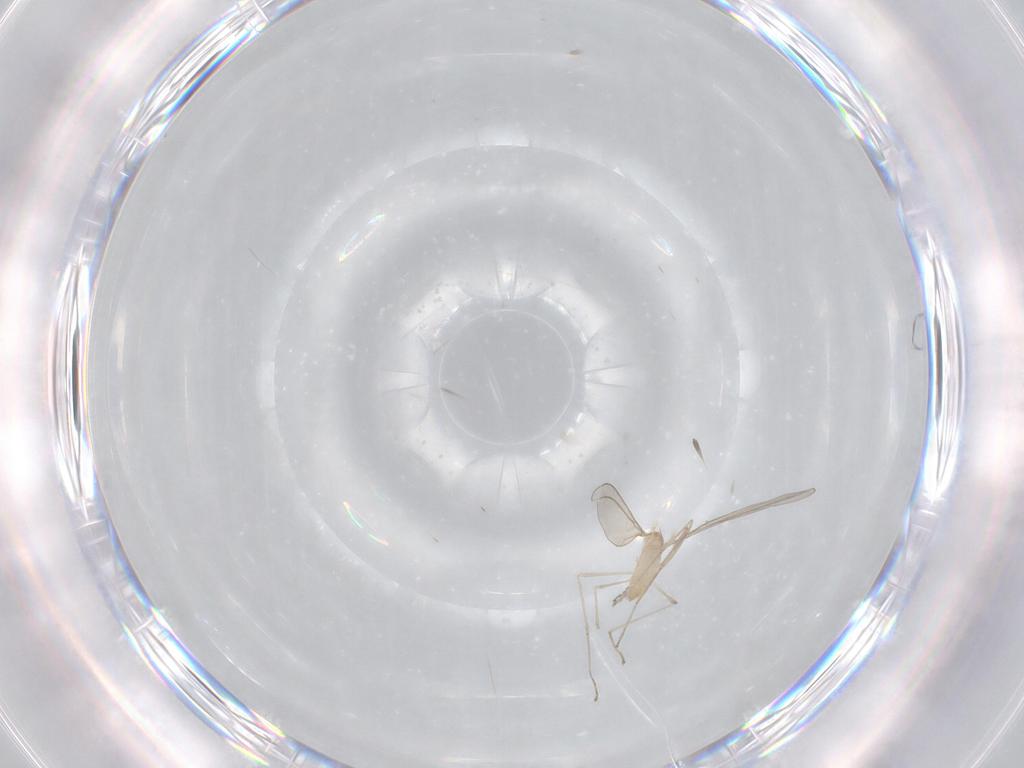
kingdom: Animalia
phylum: Arthropoda
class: Insecta
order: Diptera
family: Cecidomyiidae
